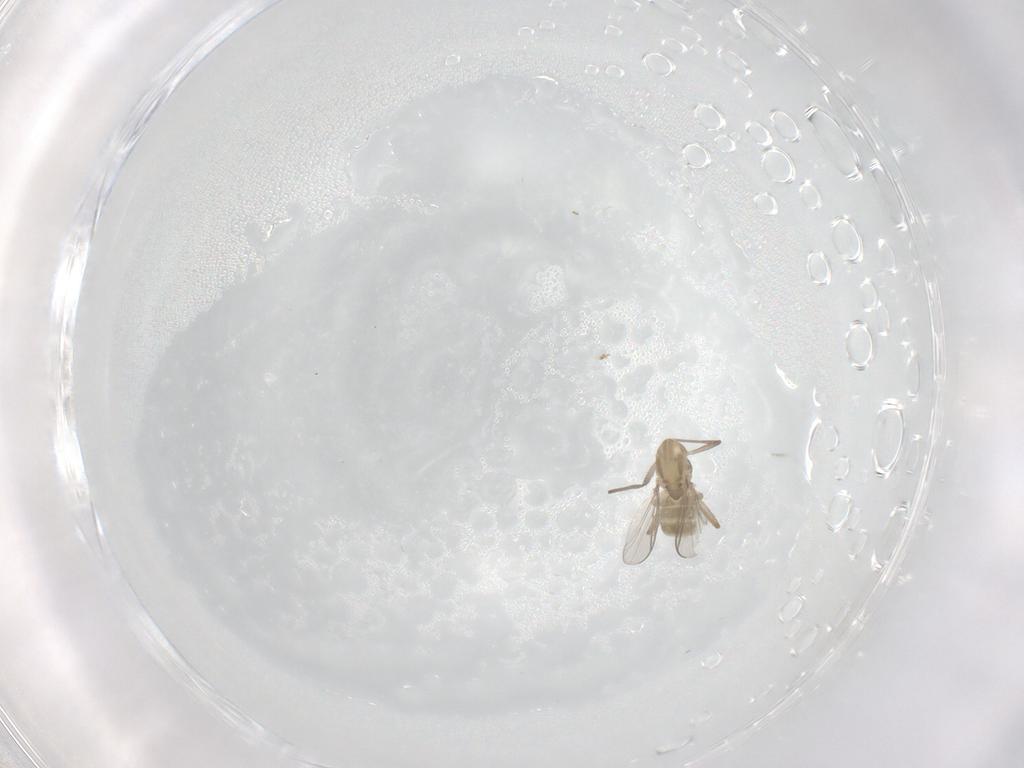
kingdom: Animalia
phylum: Arthropoda
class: Insecta
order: Diptera
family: Chironomidae
